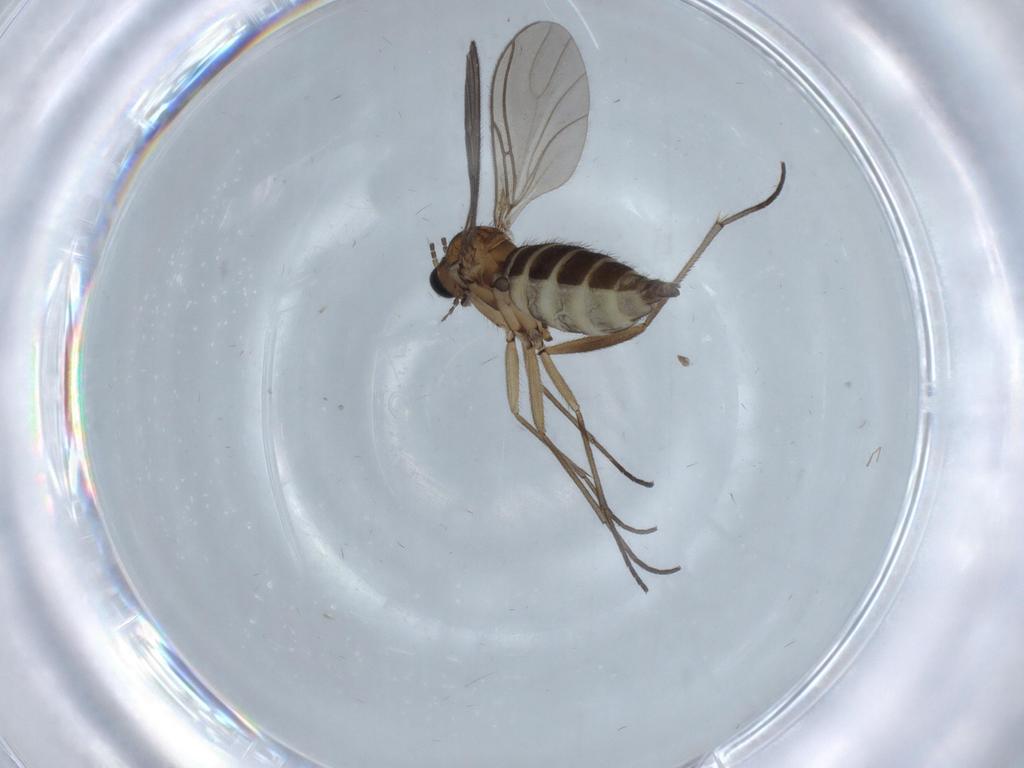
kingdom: Animalia
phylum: Arthropoda
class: Insecta
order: Diptera
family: Sciaridae
